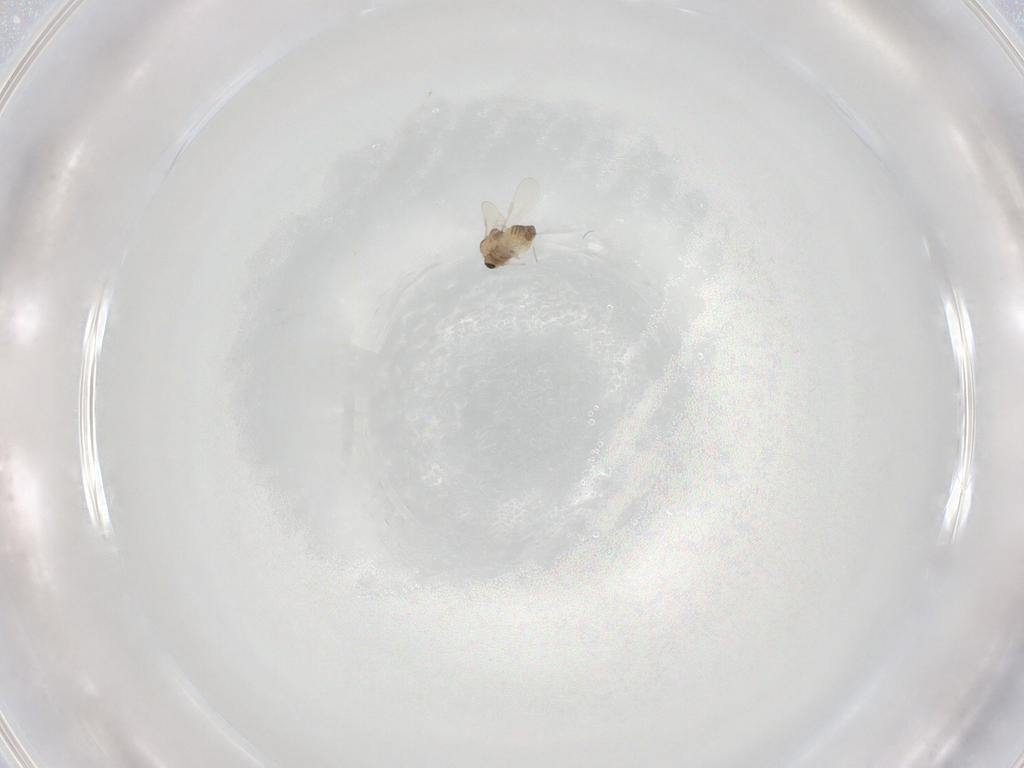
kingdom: Animalia
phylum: Arthropoda
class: Insecta
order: Diptera
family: Chironomidae
